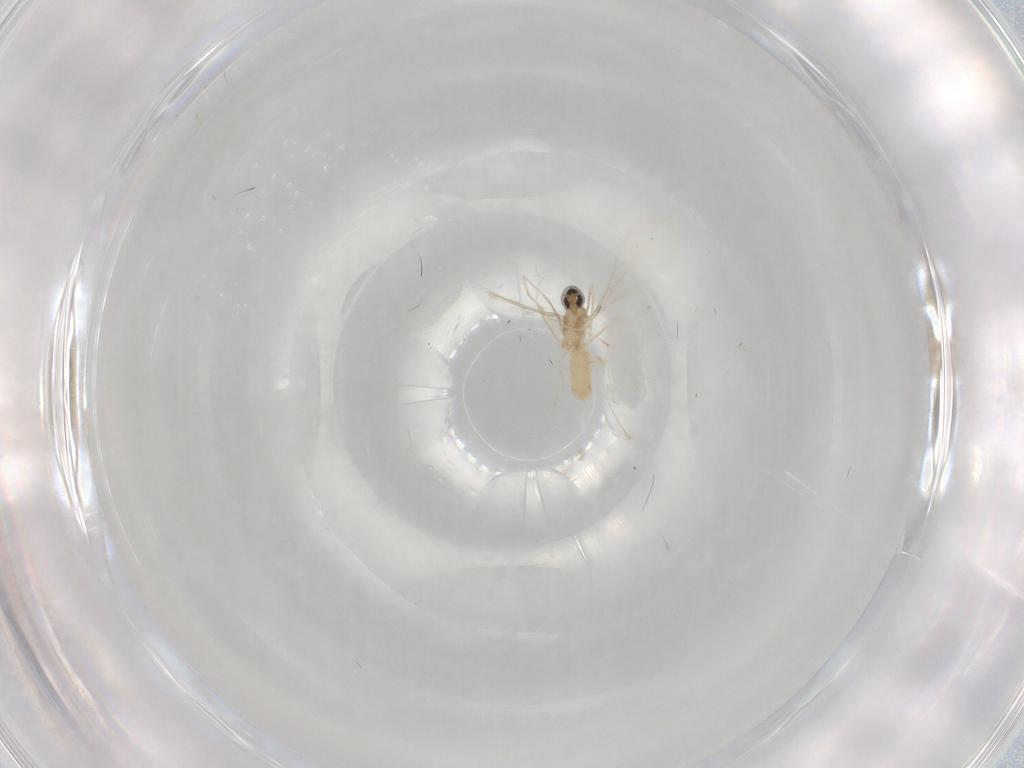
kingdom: Animalia
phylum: Arthropoda
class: Insecta
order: Diptera
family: Cecidomyiidae
